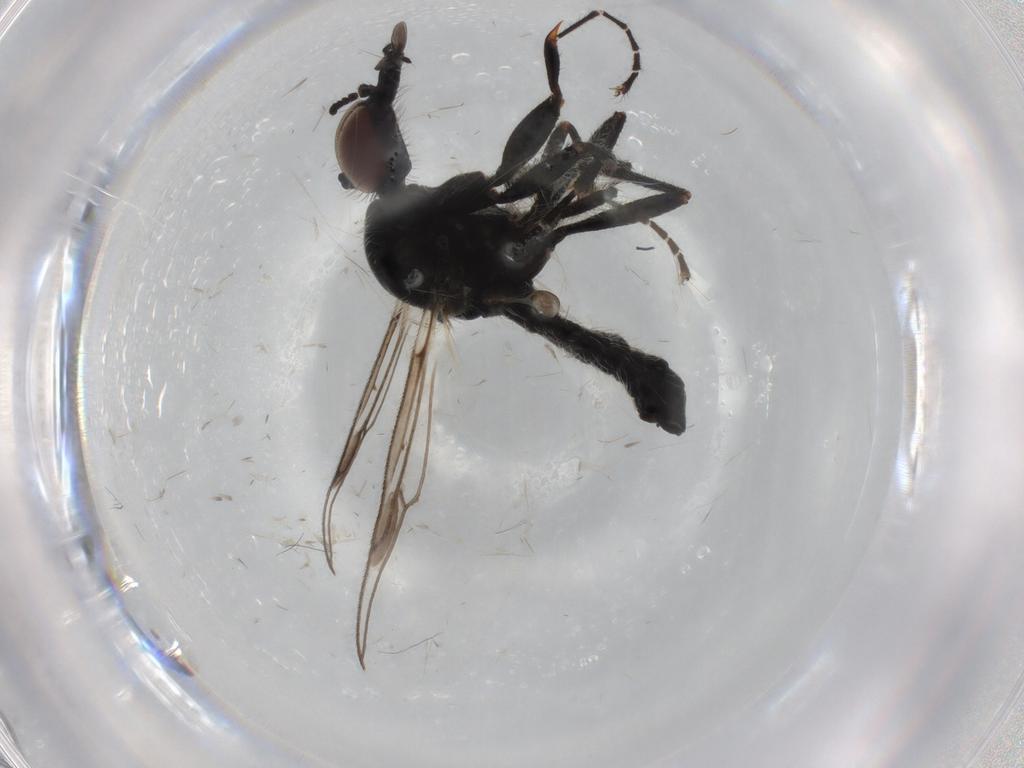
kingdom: Animalia
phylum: Arthropoda
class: Insecta
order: Diptera
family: Bibionidae
